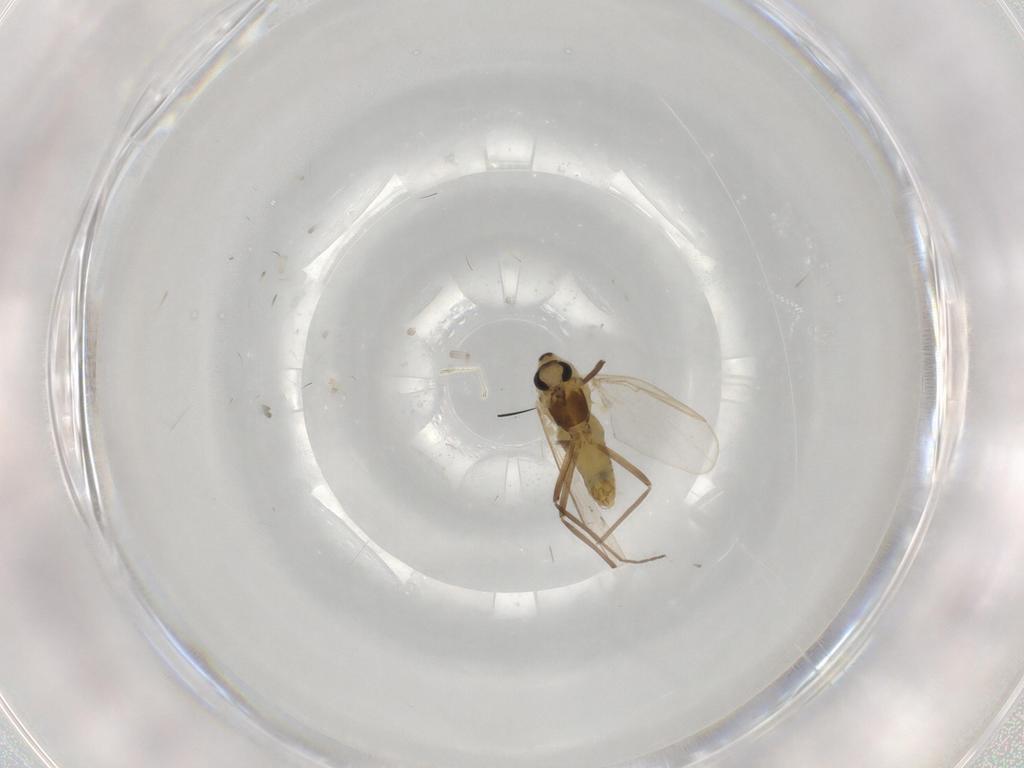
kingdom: Animalia
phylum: Arthropoda
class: Insecta
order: Diptera
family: Chironomidae
